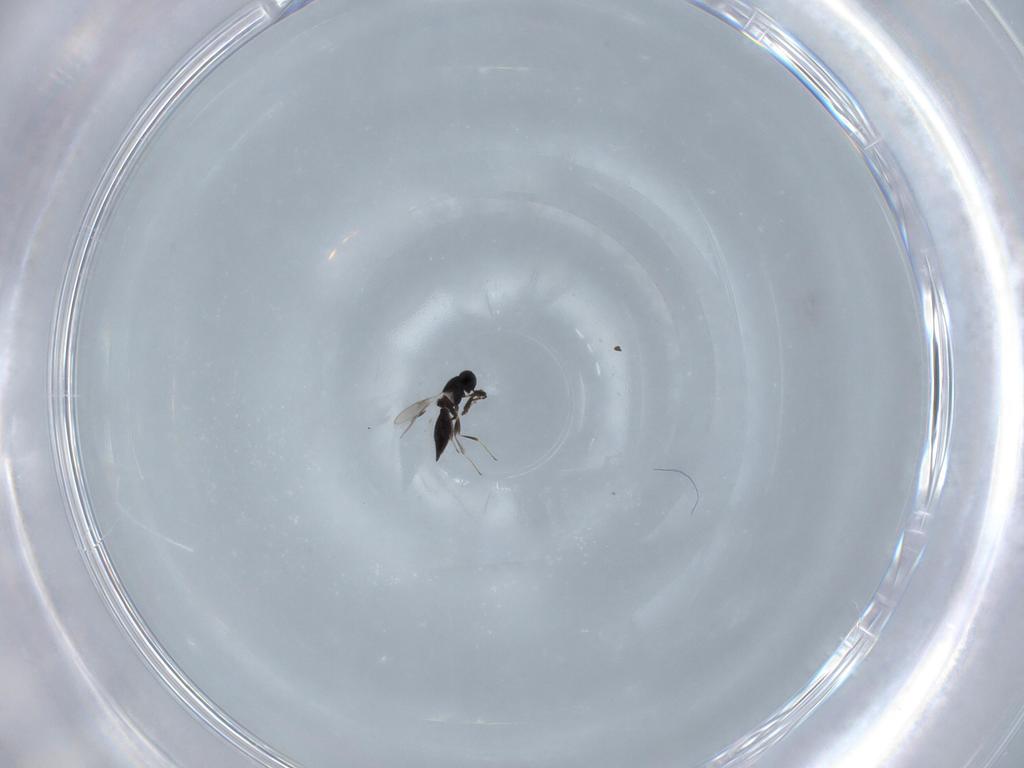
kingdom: Animalia
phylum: Arthropoda
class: Insecta
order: Hymenoptera
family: Scelionidae
